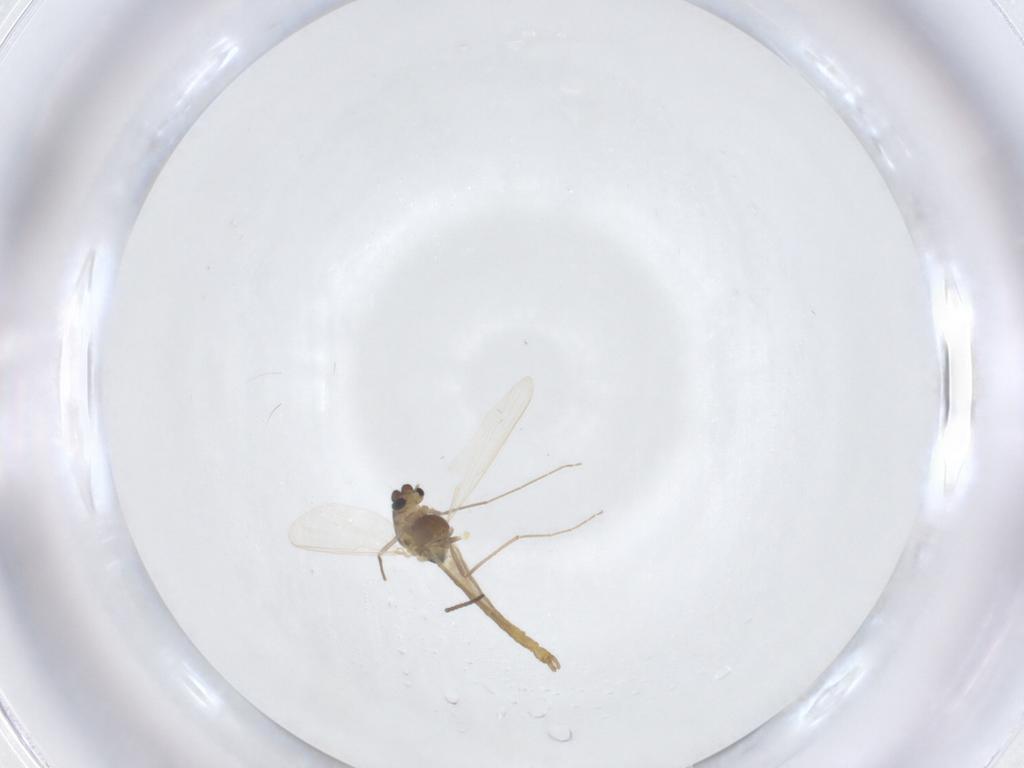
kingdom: Animalia
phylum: Arthropoda
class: Insecta
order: Diptera
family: Chironomidae
